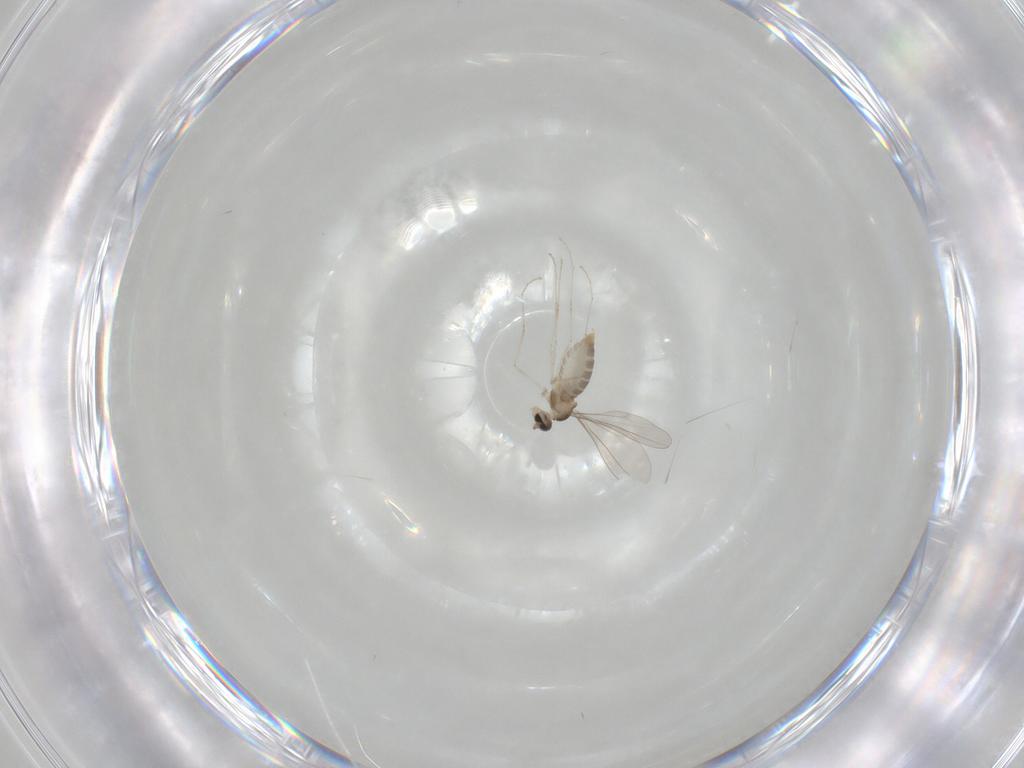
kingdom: Animalia
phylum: Arthropoda
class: Insecta
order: Diptera
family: Cecidomyiidae
